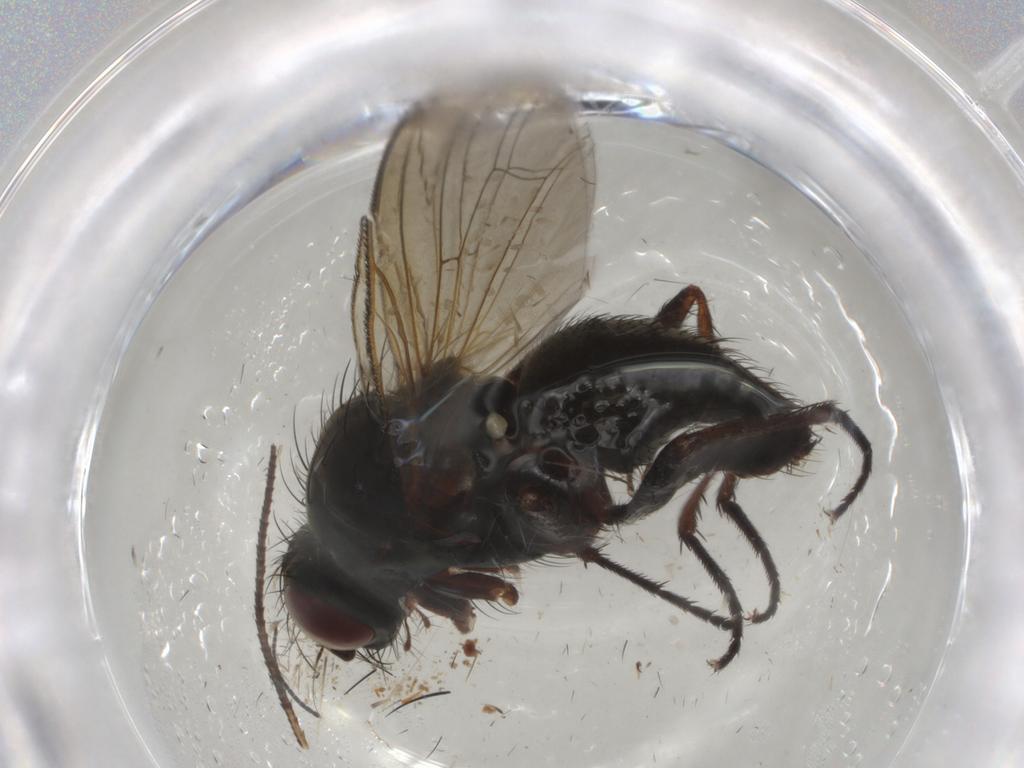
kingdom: Animalia
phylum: Arthropoda
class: Insecta
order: Diptera
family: Anthomyiidae
